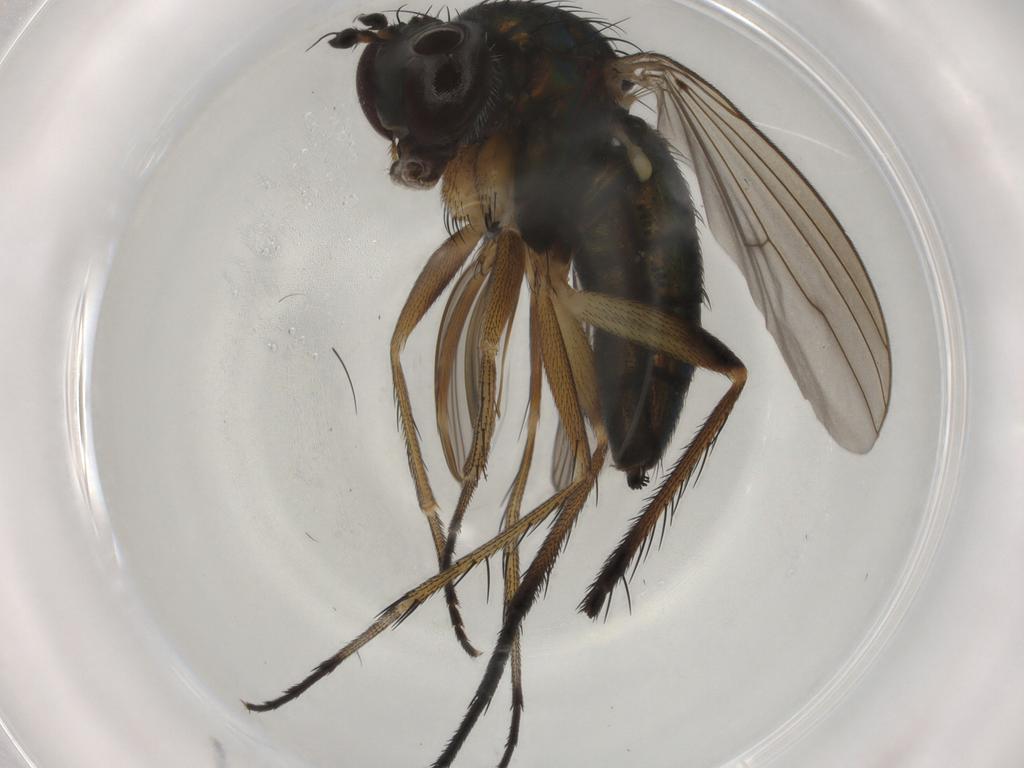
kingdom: Animalia
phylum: Arthropoda
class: Insecta
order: Diptera
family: Dolichopodidae
